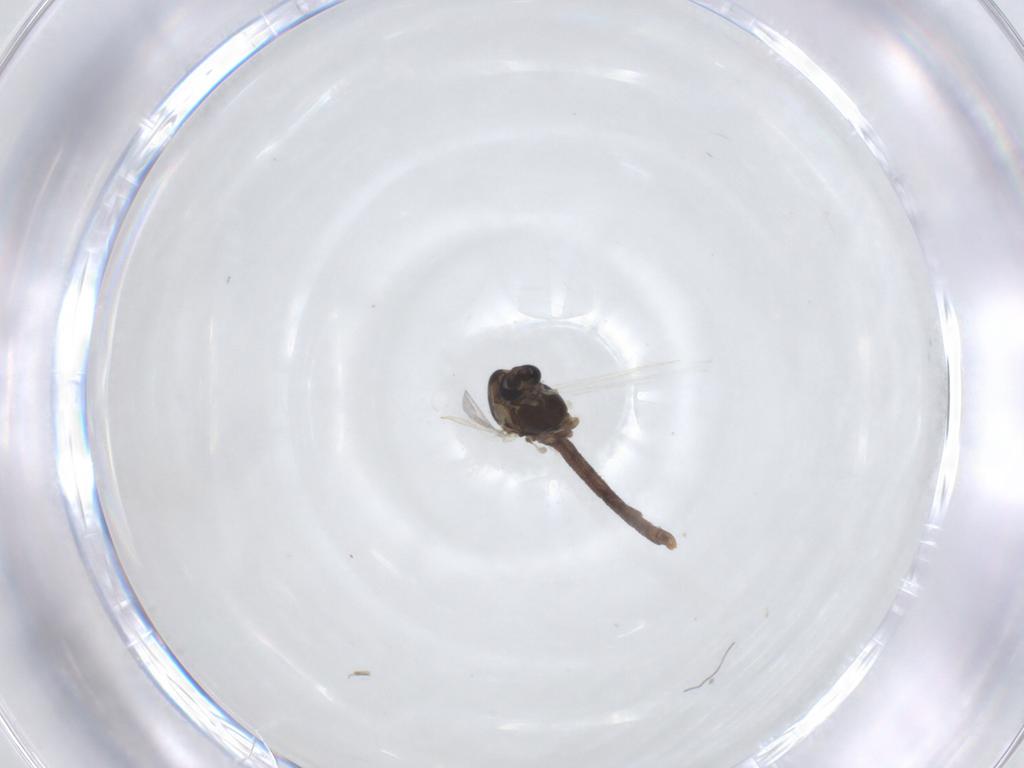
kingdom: Animalia
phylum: Arthropoda
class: Insecta
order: Diptera
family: Chironomidae
